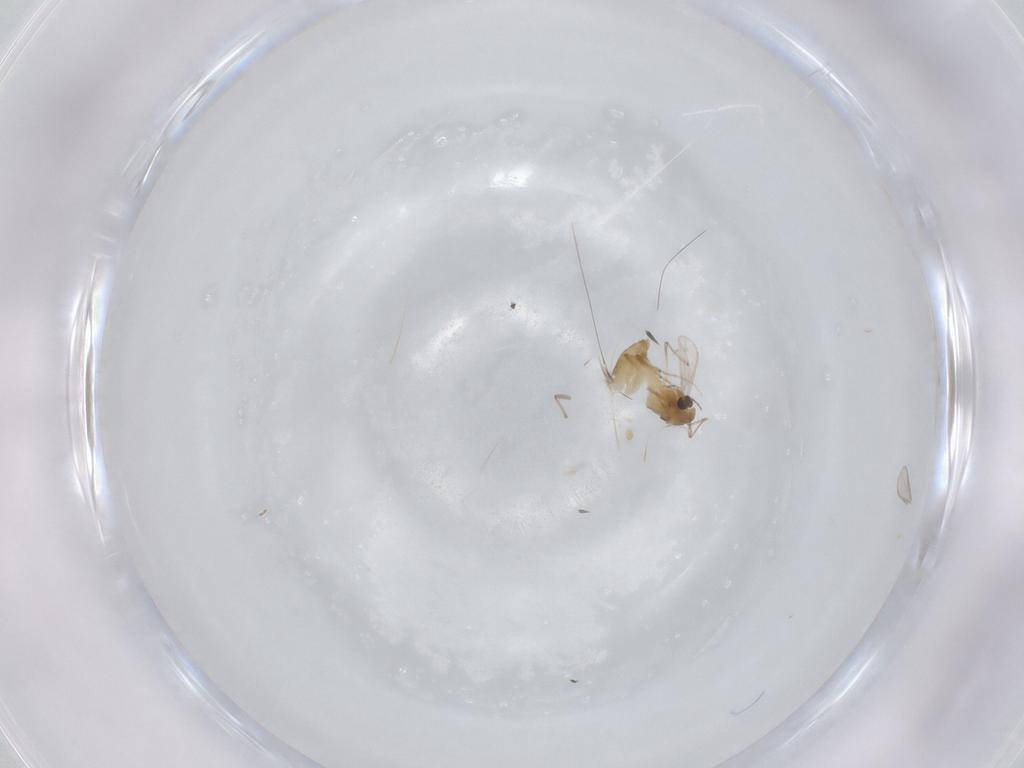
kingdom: Animalia
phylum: Arthropoda
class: Insecta
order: Diptera
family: Chironomidae
